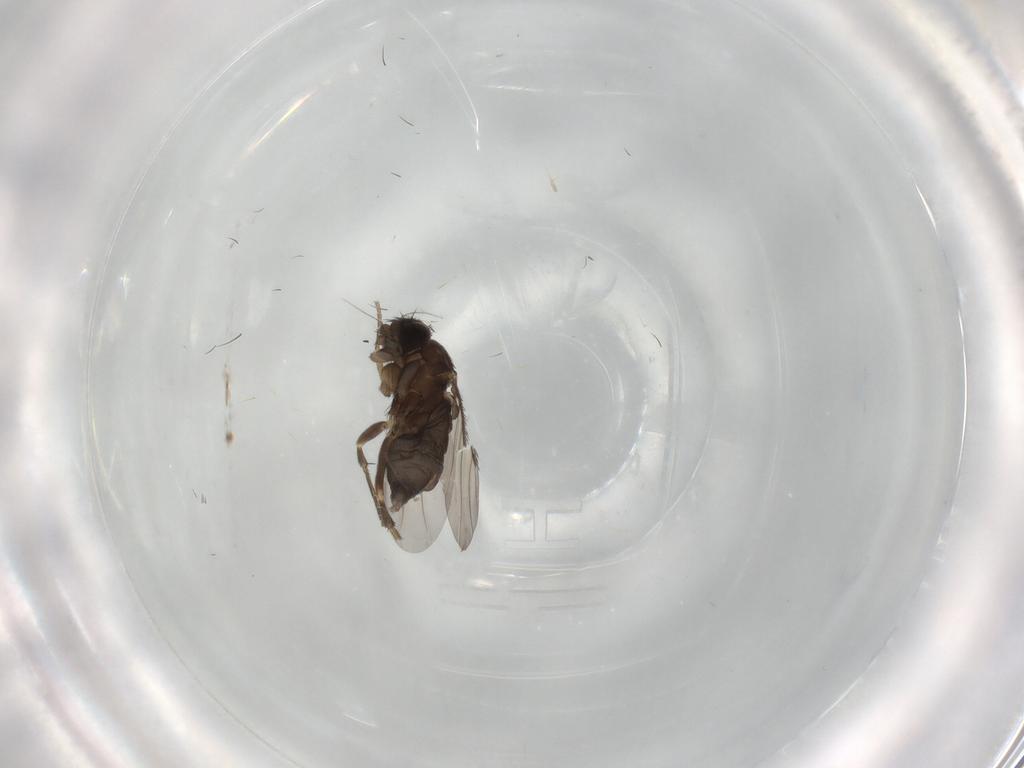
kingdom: Animalia
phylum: Arthropoda
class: Insecta
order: Diptera
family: Phoridae
